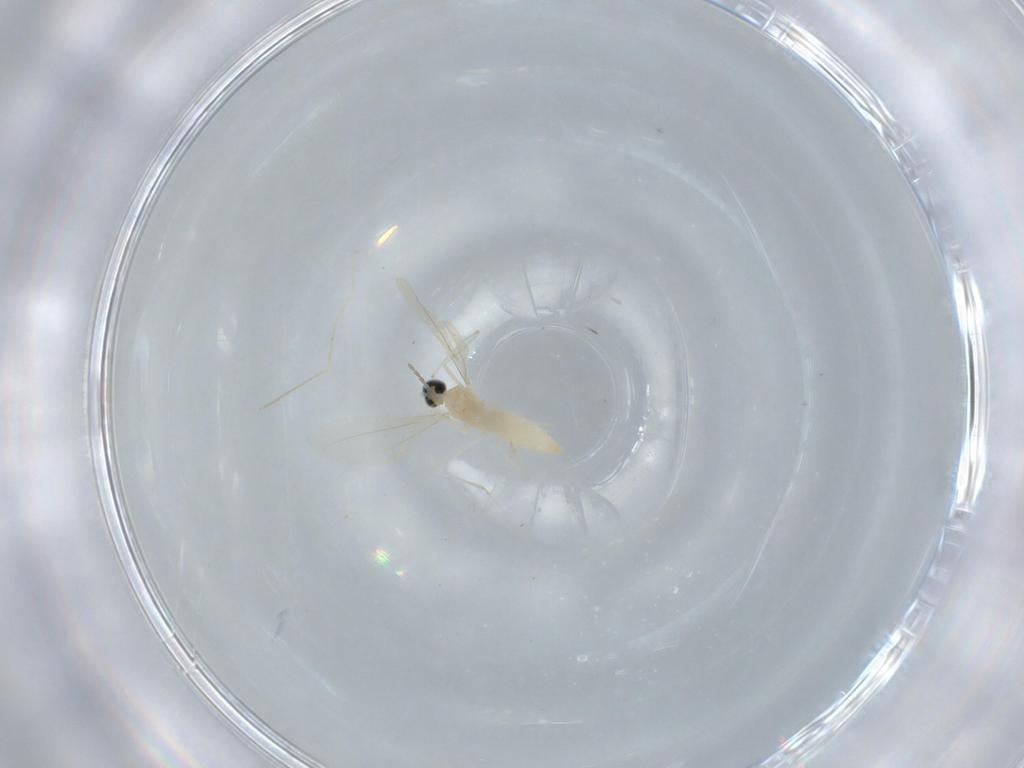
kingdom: Animalia
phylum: Arthropoda
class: Insecta
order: Diptera
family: Cecidomyiidae
